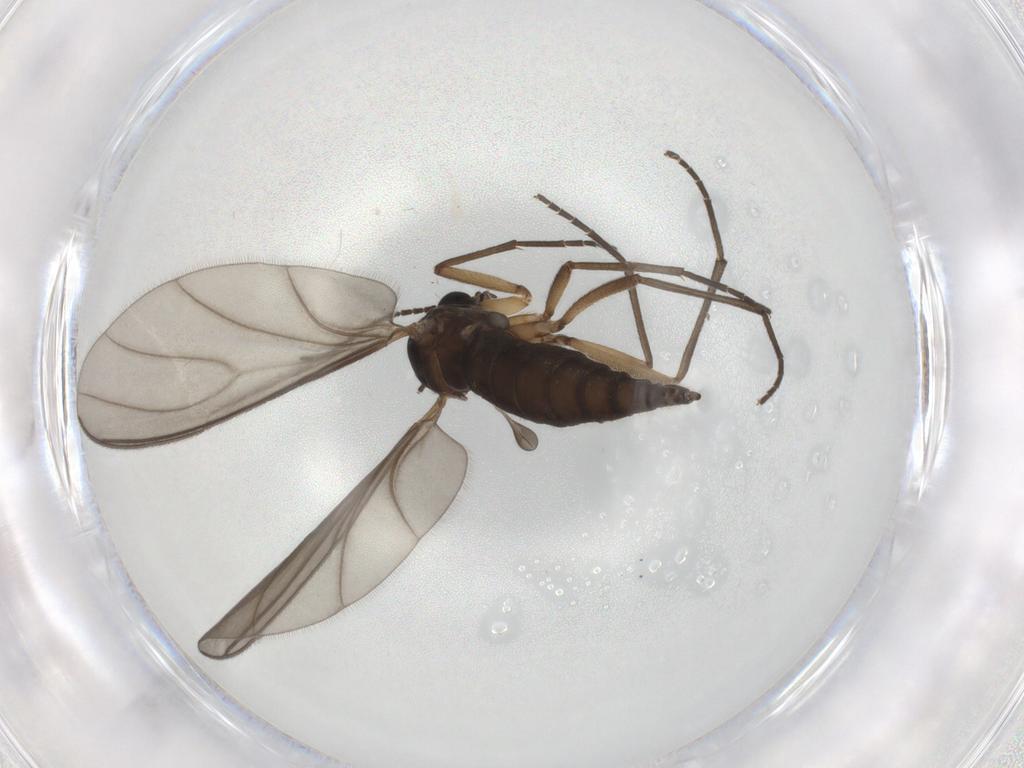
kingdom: Animalia
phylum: Arthropoda
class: Insecta
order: Diptera
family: Sciaridae
